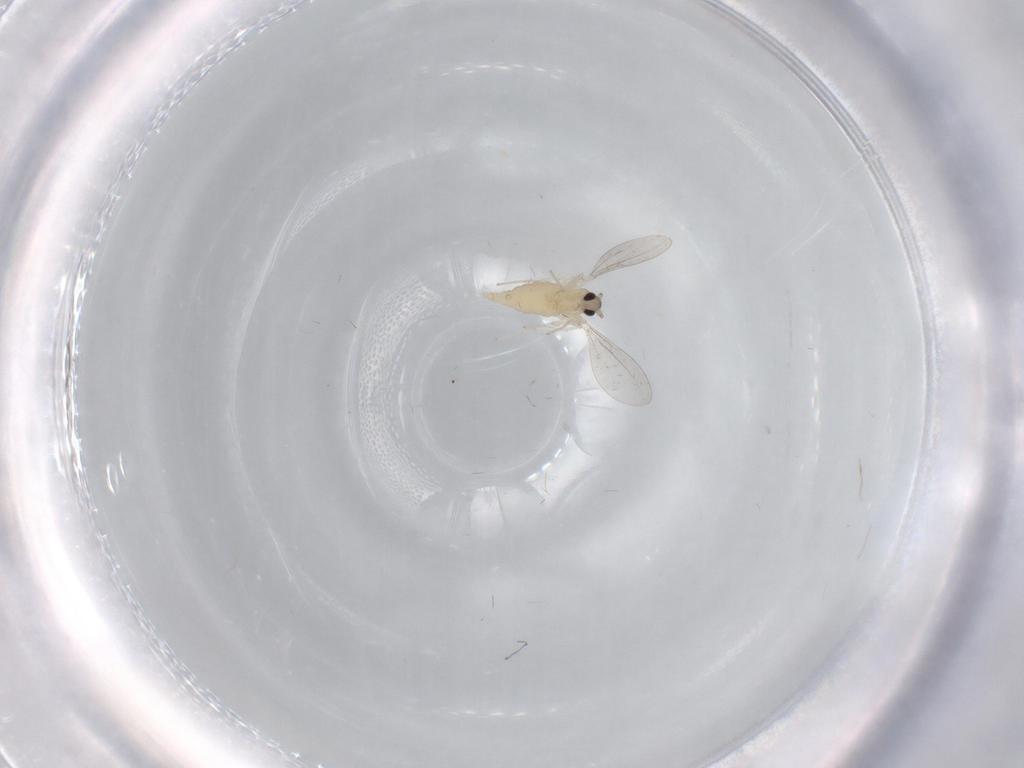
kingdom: Animalia
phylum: Arthropoda
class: Insecta
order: Diptera
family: Cecidomyiidae
